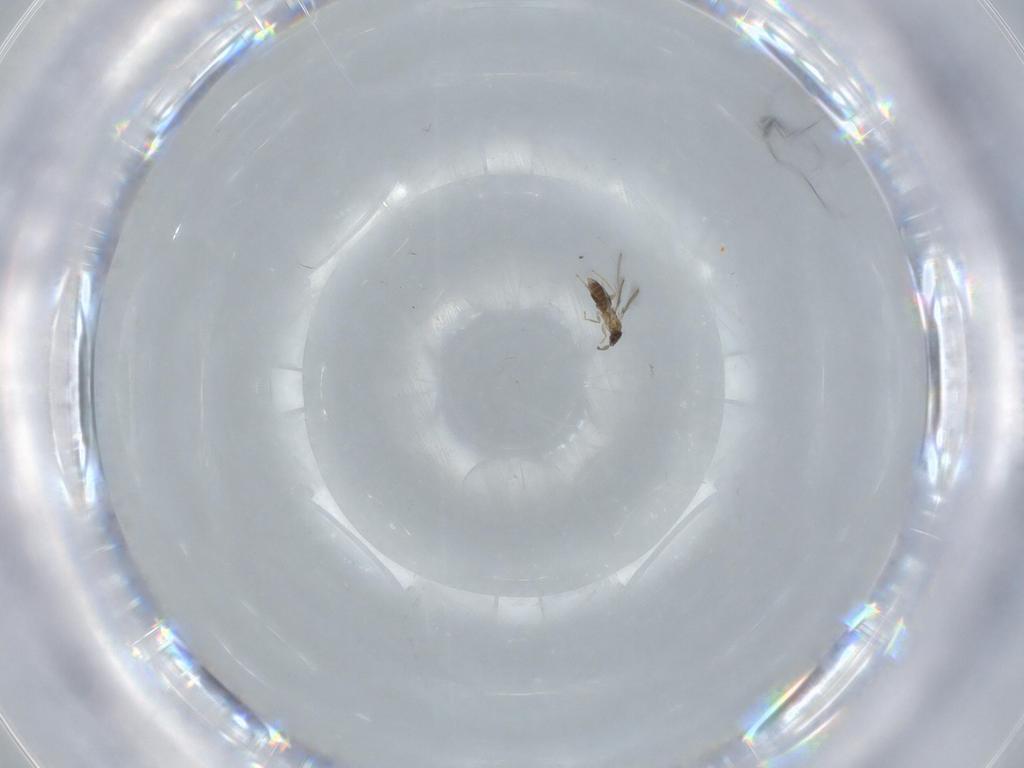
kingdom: Animalia
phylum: Arthropoda
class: Insecta
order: Hymenoptera
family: Mymaridae
